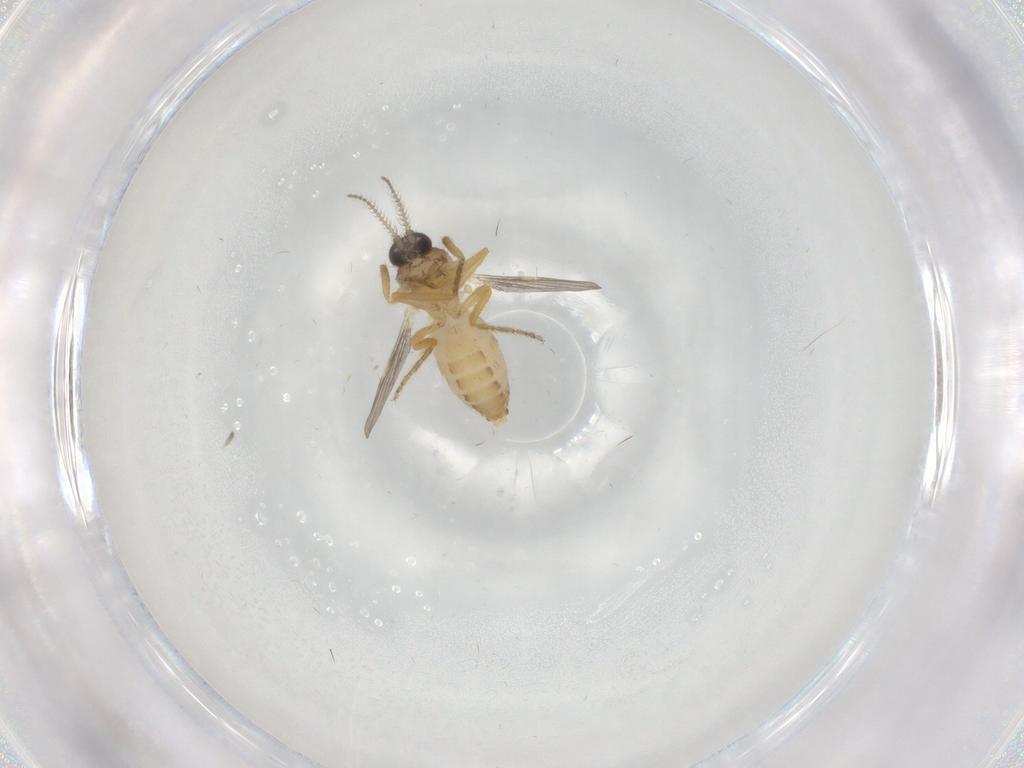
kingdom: Animalia
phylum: Arthropoda
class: Insecta
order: Diptera
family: Ceratopogonidae
